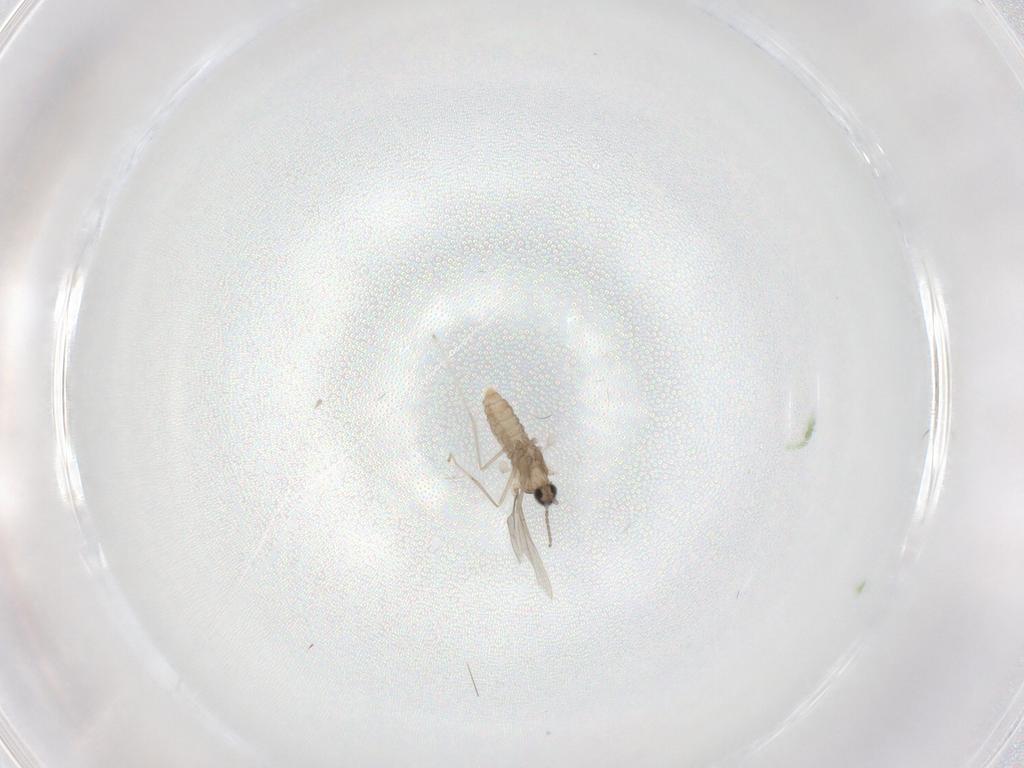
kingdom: Animalia
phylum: Arthropoda
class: Insecta
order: Diptera
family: Cecidomyiidae
